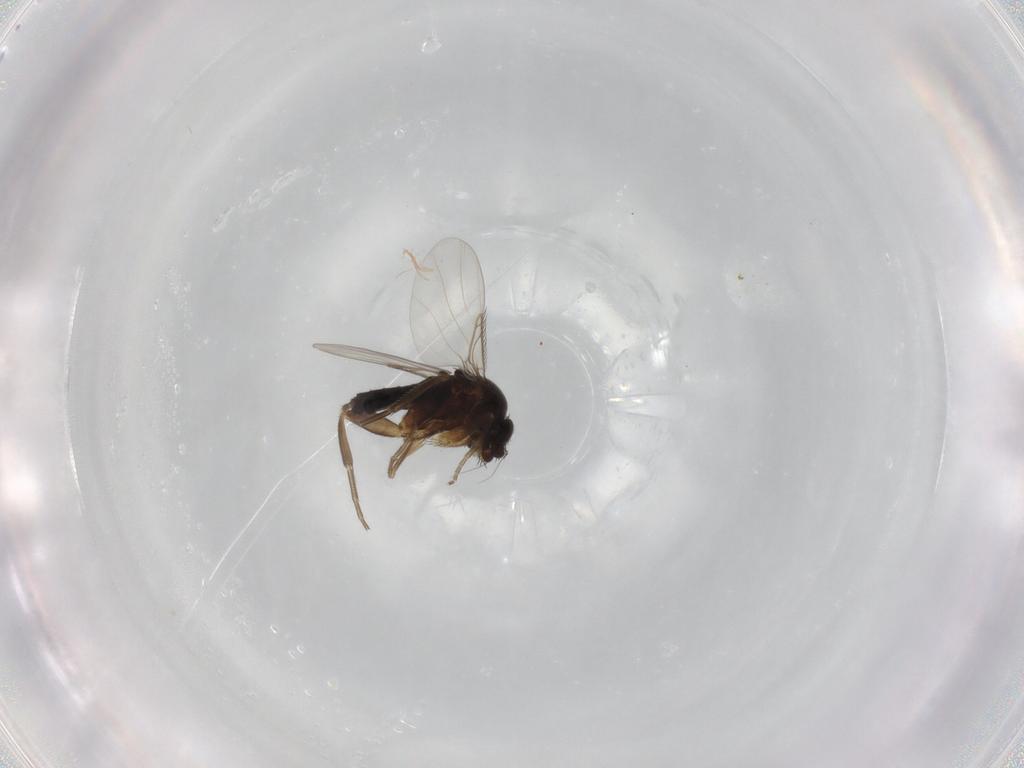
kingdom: Animalia
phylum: Arthropoda
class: Insecta
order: Diptera
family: Phoridae
